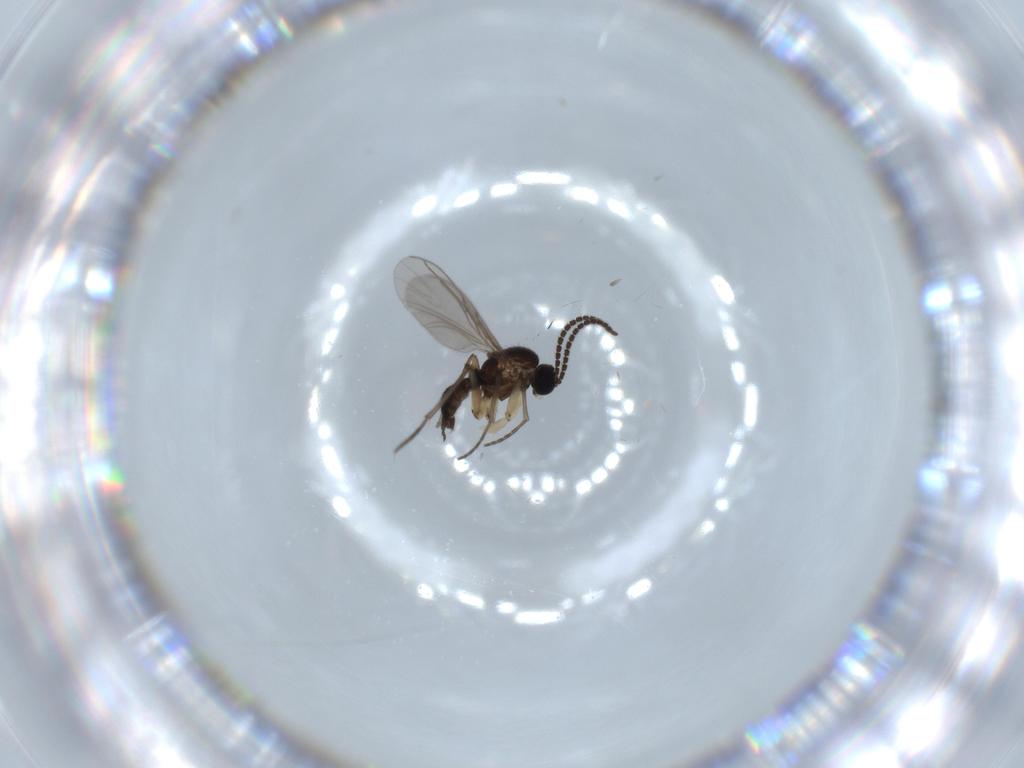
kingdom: Animalia
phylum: Arthropoda
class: Insecta
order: Diptera
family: Sciaridae
